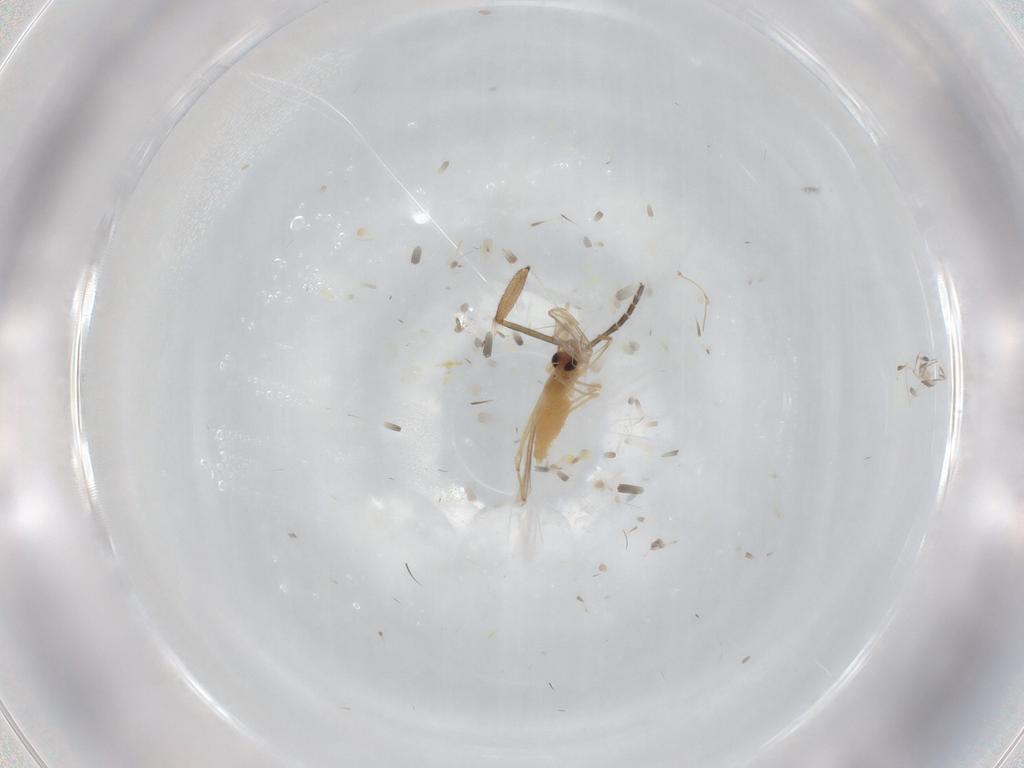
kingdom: Animalia
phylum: Arthropoda
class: Insecta
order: Diptera
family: Chironomidae
